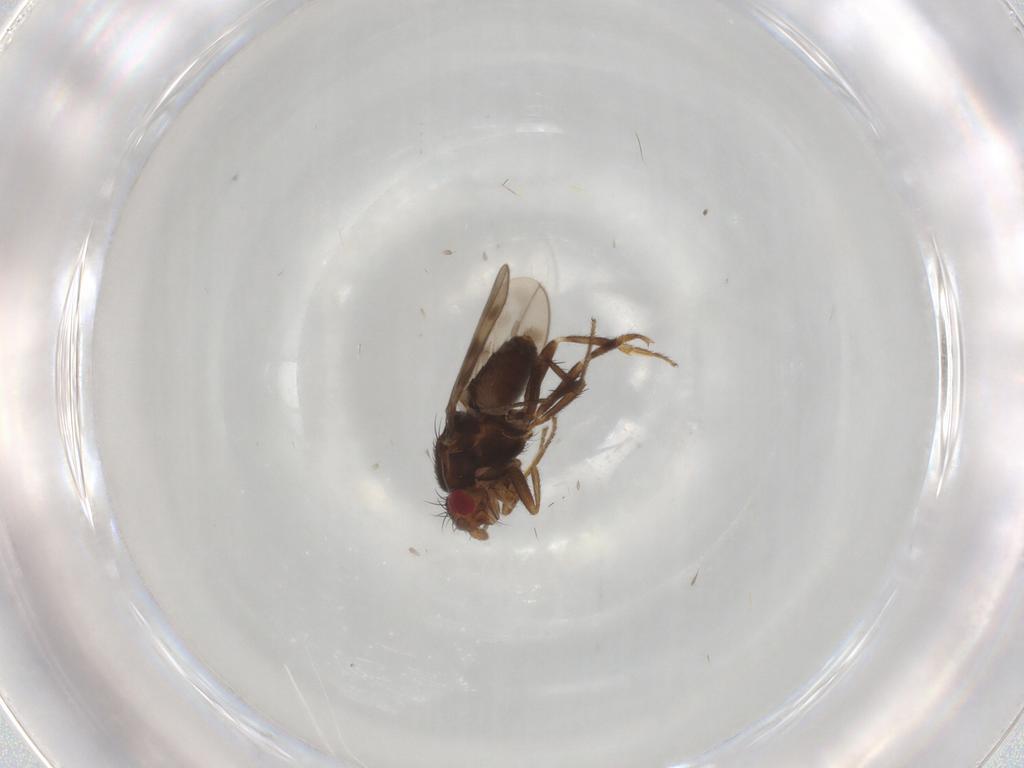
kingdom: Animalia
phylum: Arthropoda
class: Insecta
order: Diptera
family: Sphaeroceridae
